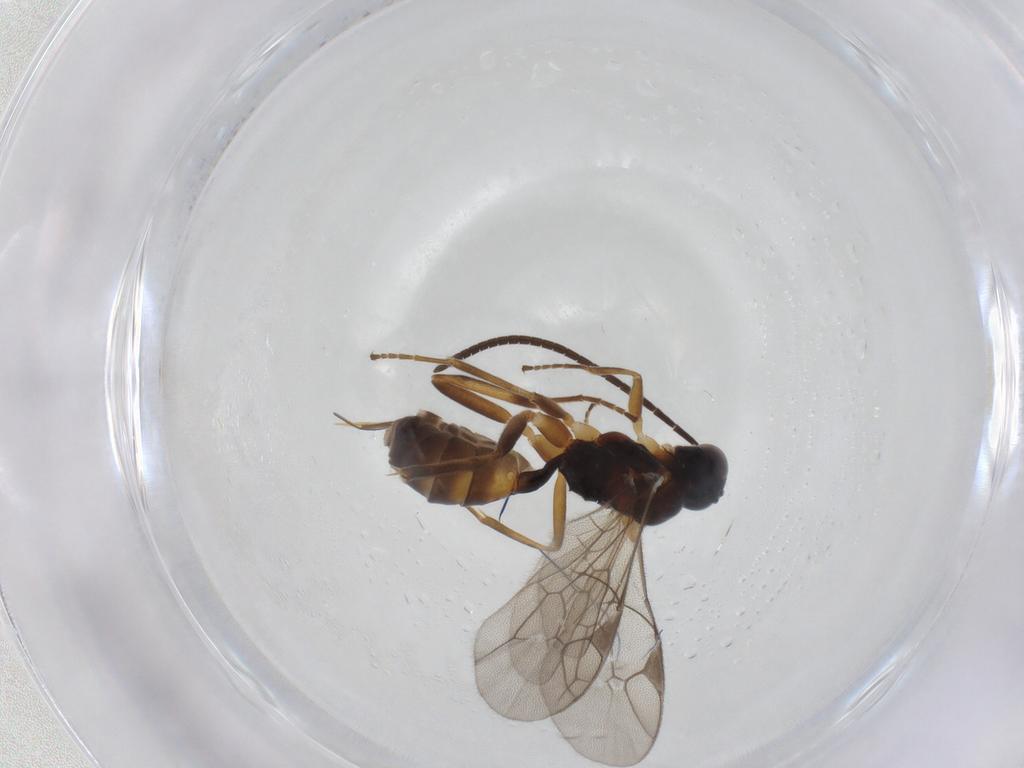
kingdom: Animalia
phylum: Arthropoda
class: Insecta
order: Hymenoptera
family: Ichneumonidae
